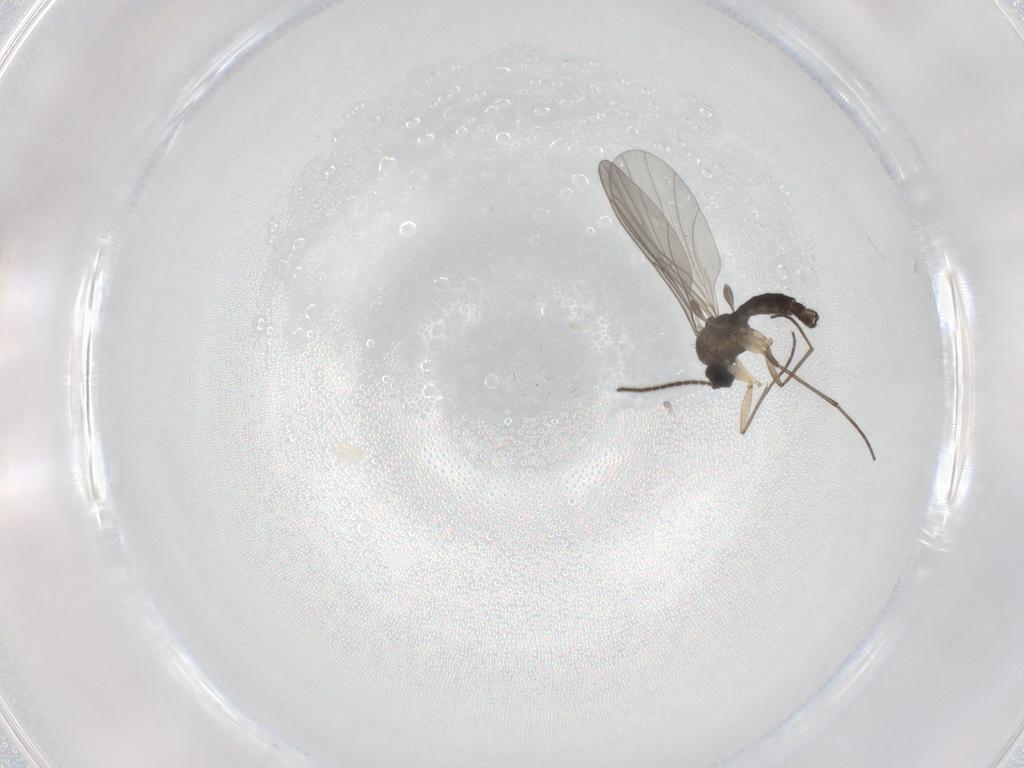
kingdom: Animalia
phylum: Arthropoda
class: Insecta
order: Diptera
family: Sciaridae
